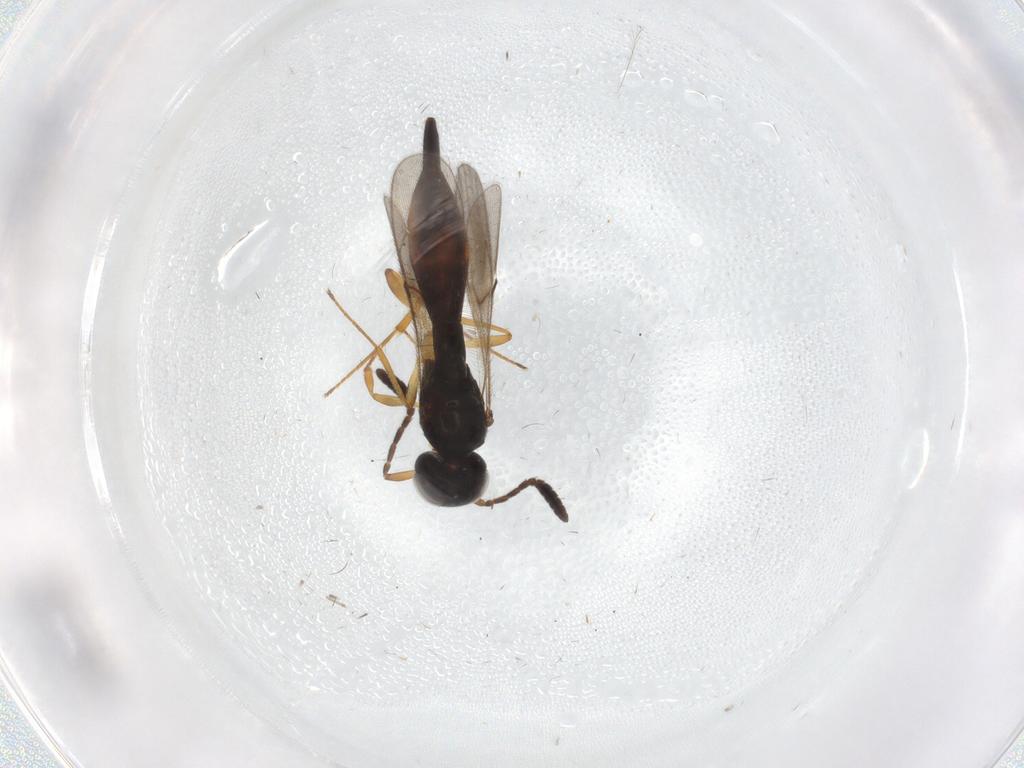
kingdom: Animalia
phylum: Arthropoda
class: Insecta
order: Hymenoptera
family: Scelionidae
